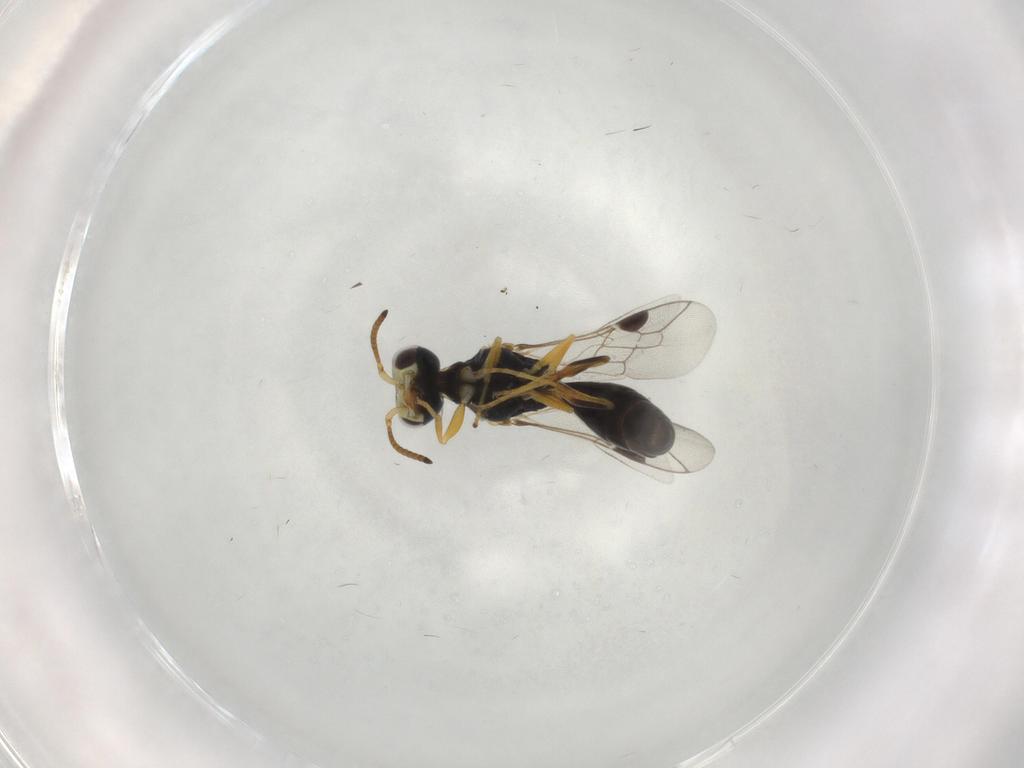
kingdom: Animalia
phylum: Arthropoda
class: Insecta
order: Hymenoptera
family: Pemphredonidae
